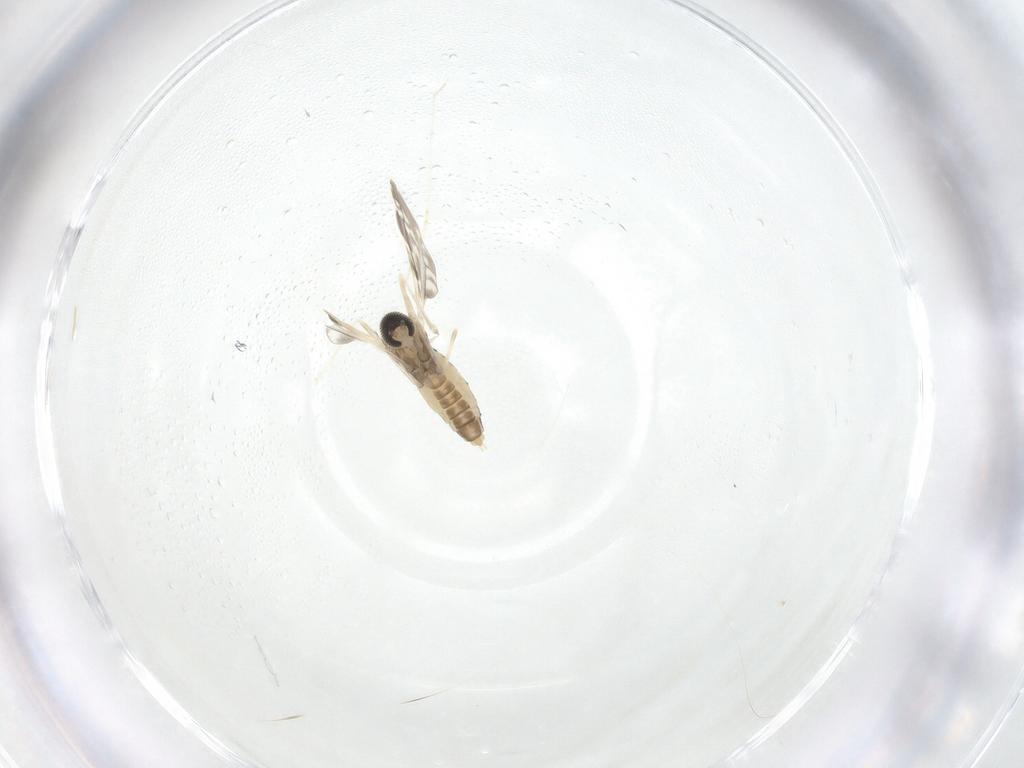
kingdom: Animalia
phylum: Arthropoda
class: Insecta
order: Diptera
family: Cecidomyiidae
